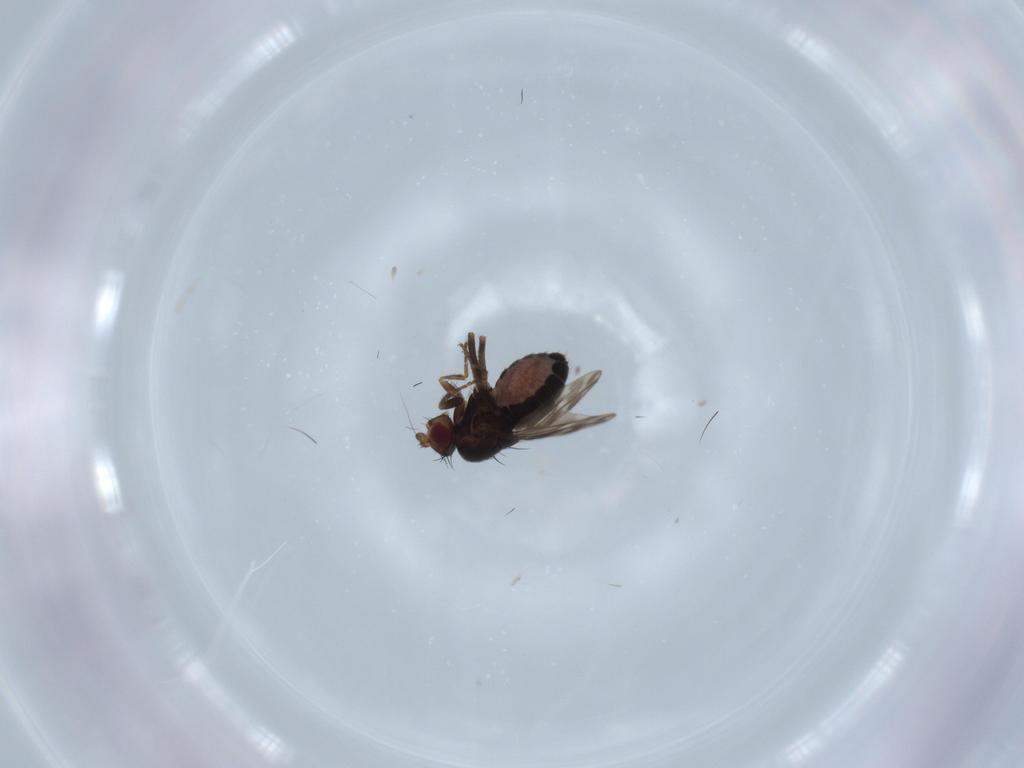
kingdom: Animalia
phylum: Arthropoda
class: Insecta
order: Diptera
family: Sphaeroceridae
